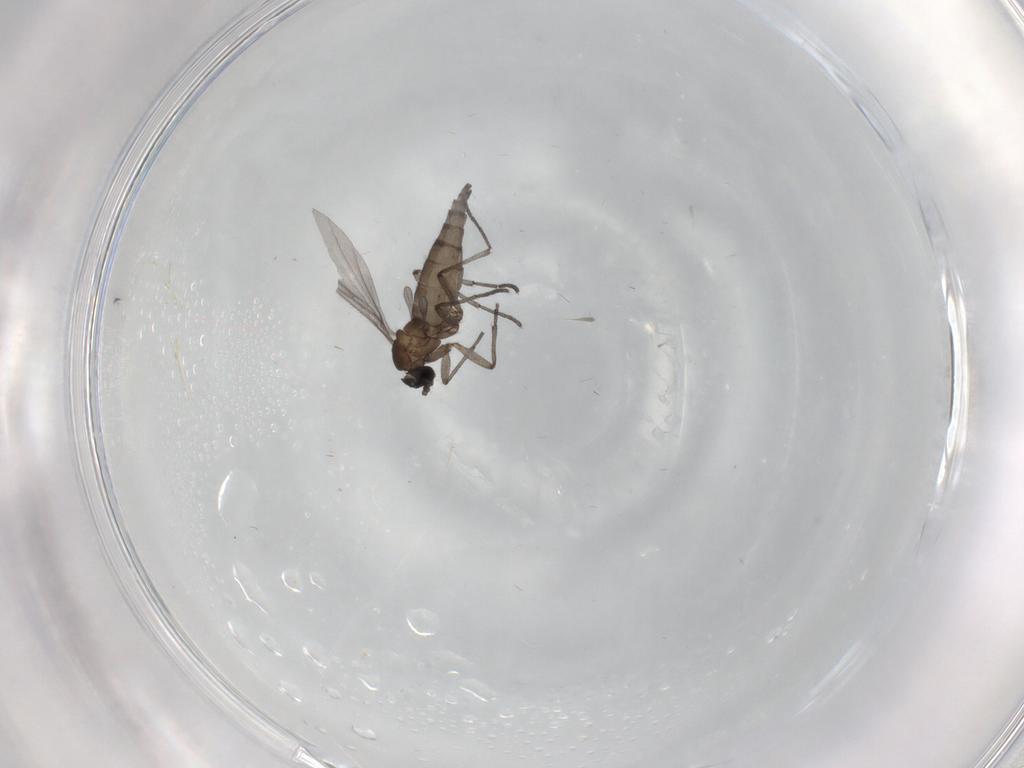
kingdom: Animalia
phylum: Arthropoda
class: Insecta
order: Diptera
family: Sciaridae
